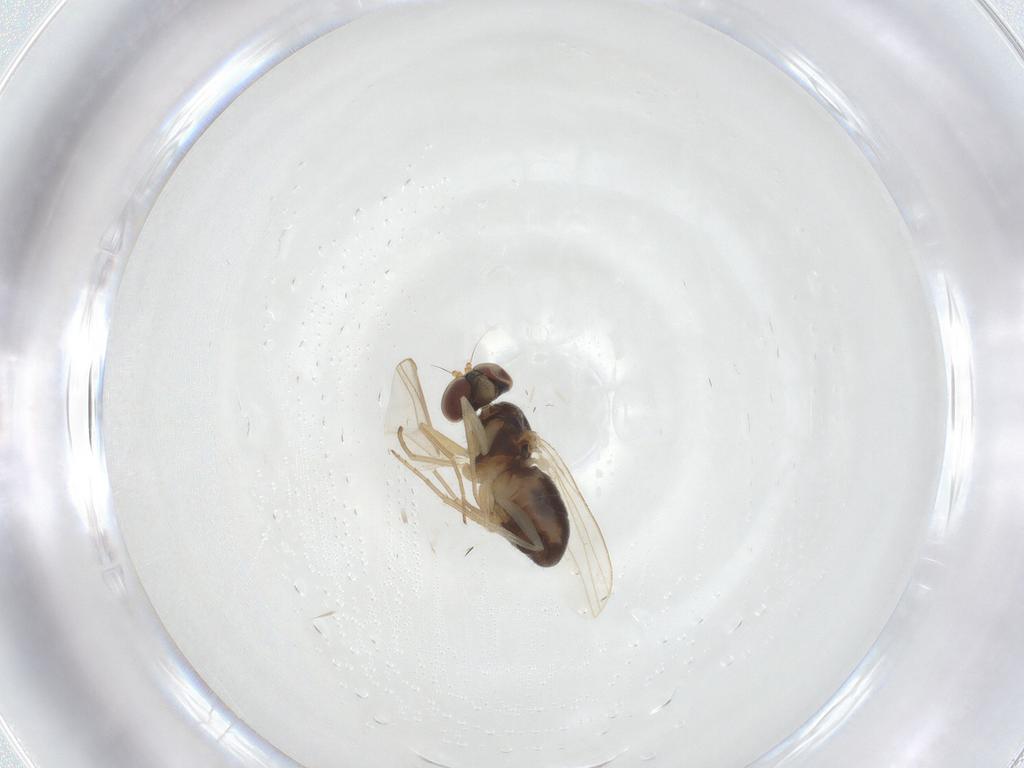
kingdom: Animalia
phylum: Arthropoda
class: Insecta
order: Diptera
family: Dolichopodidae
